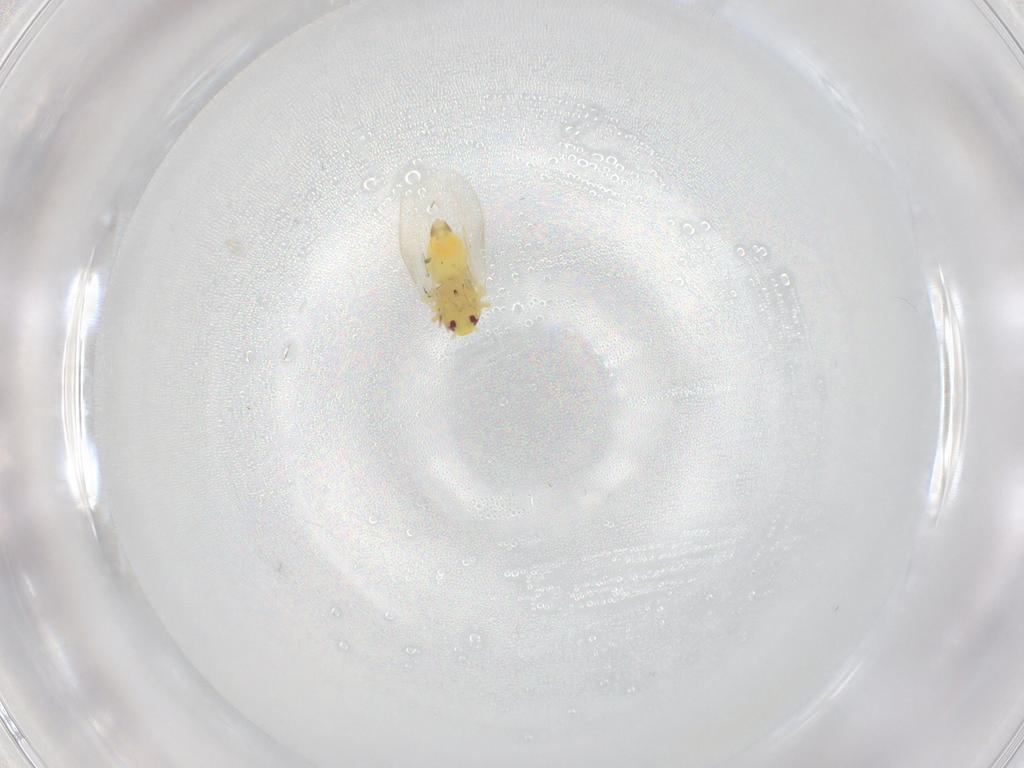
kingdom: Animalia
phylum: Arthropoda
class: Insecta
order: Hemiptera
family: Aleyrodidae
